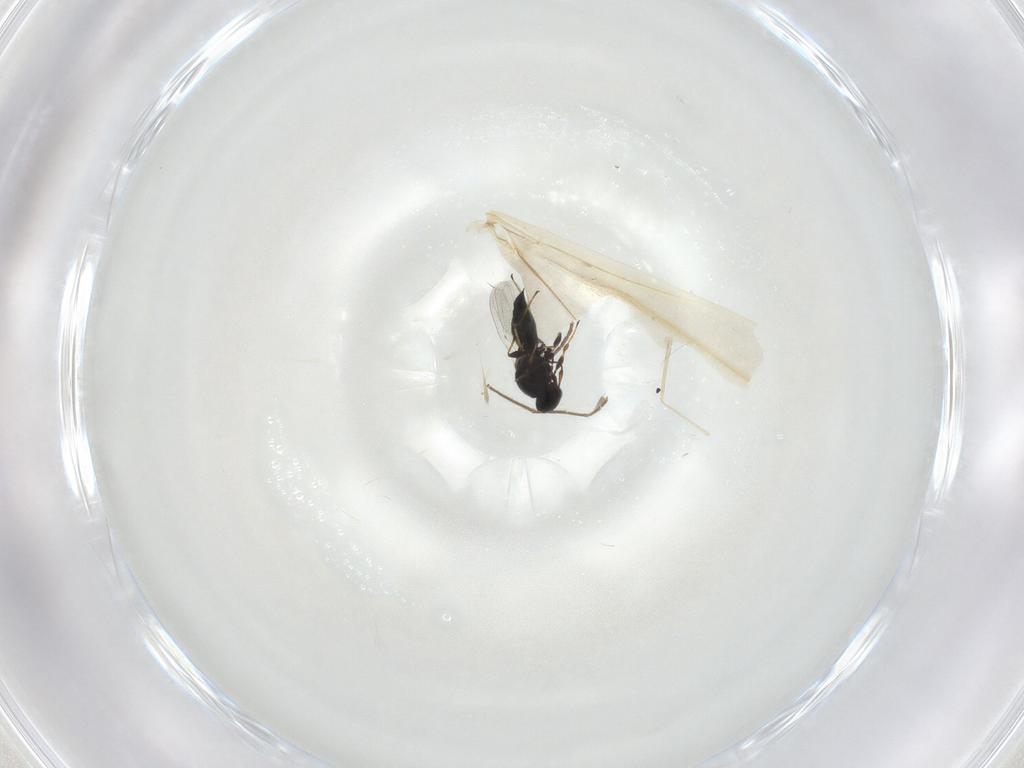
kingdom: Animalia
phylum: Arthropoda
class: Insecta
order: Hymenoptera
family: Platygastridae
